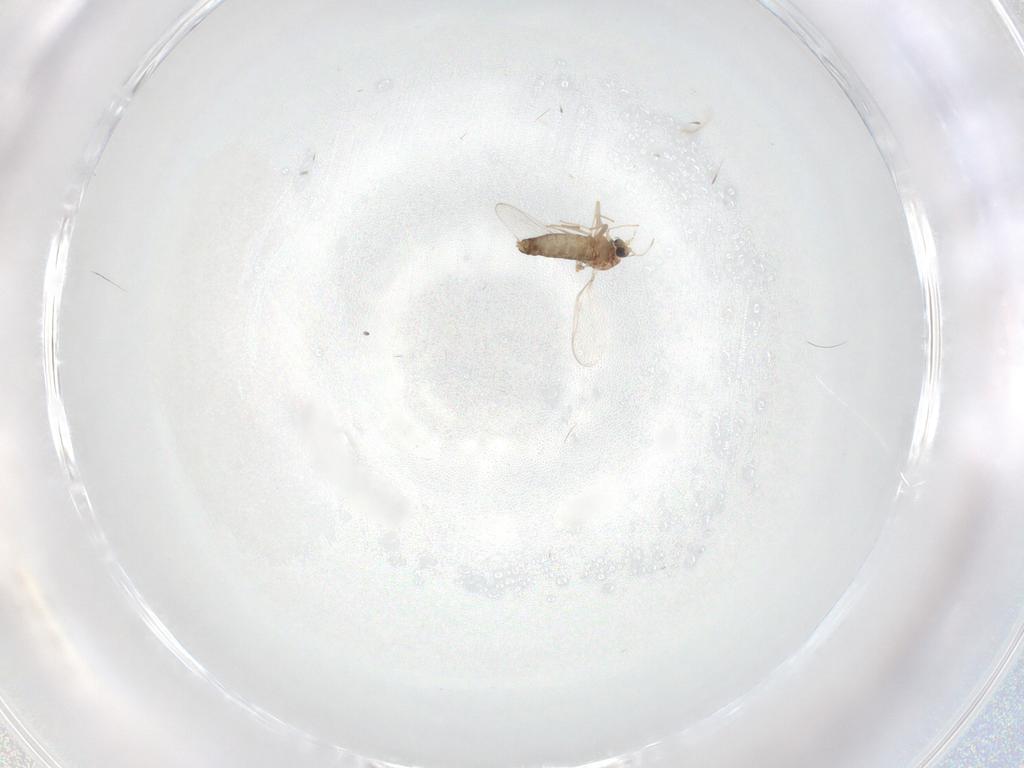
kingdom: Animalia
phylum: Arthropoda
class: Insecta
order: Diptera
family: Chironomidae
